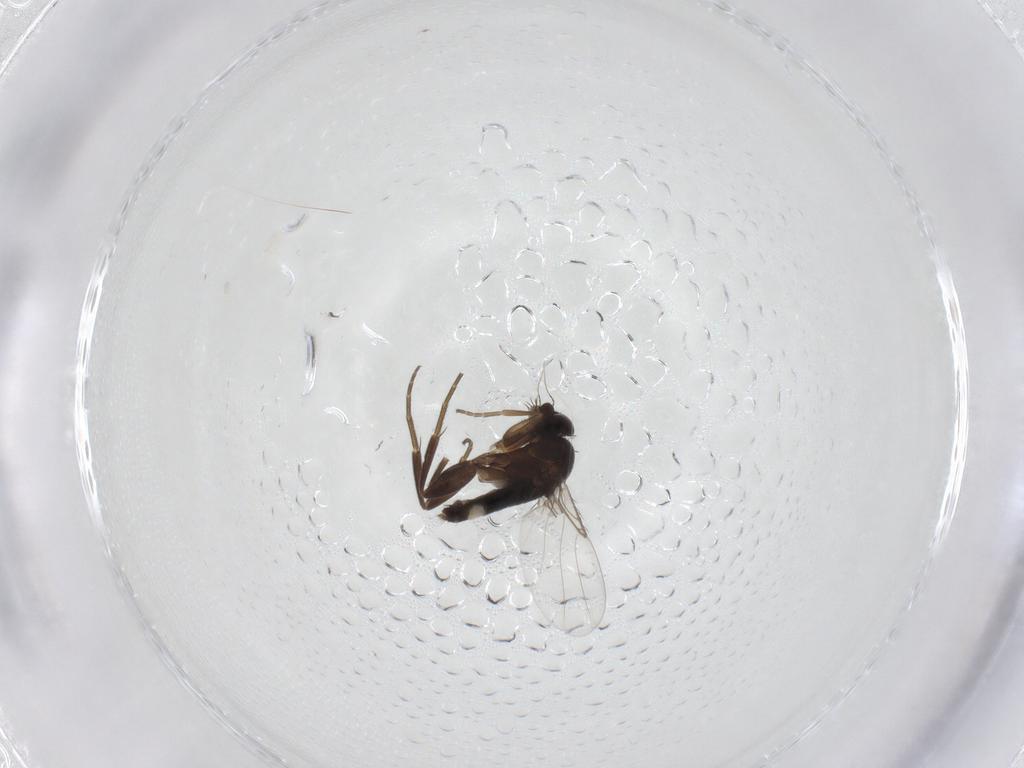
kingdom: Animalia
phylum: Arthropoda
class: Insecta
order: Diptera
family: Phoridae
